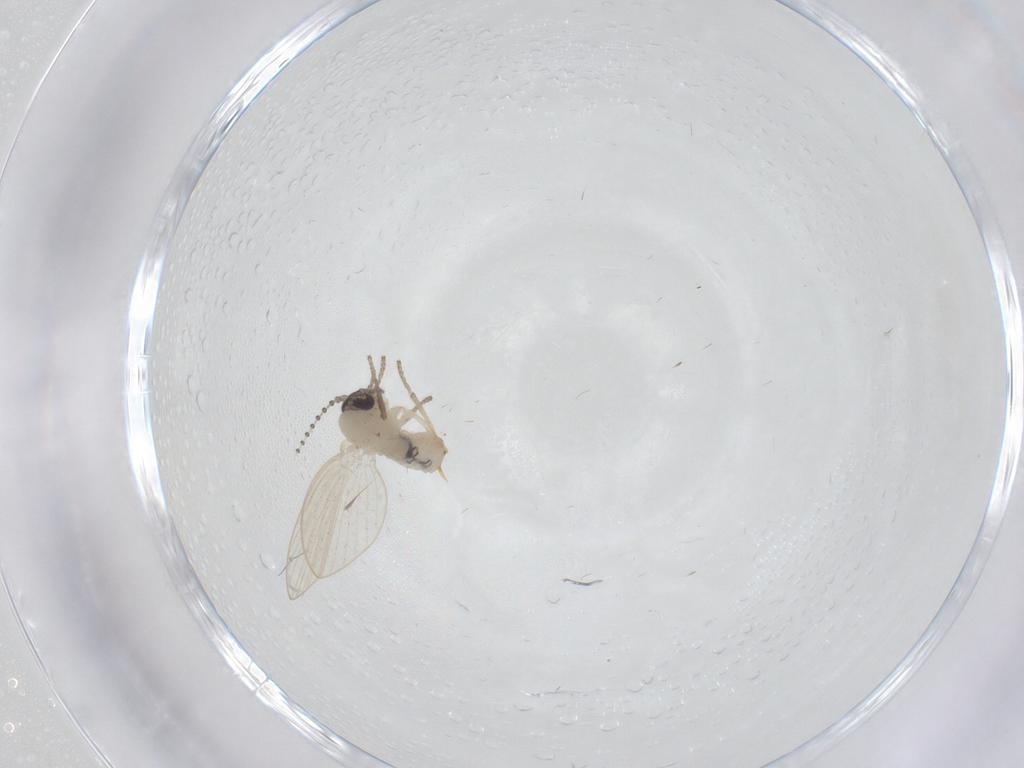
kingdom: Animalia
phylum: Arthropoda
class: Insecta
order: Diptera
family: Psychodidae
